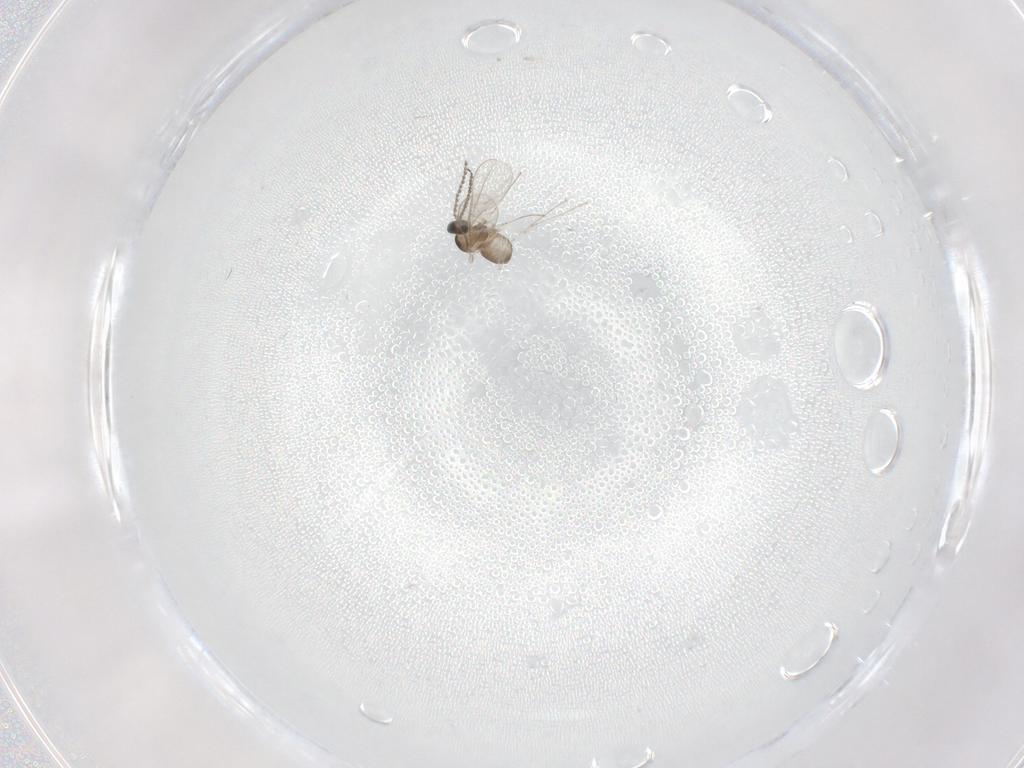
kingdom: Animalia
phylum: Arthropoda
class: Insecta
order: Diptera
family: Cecidomyiidae
